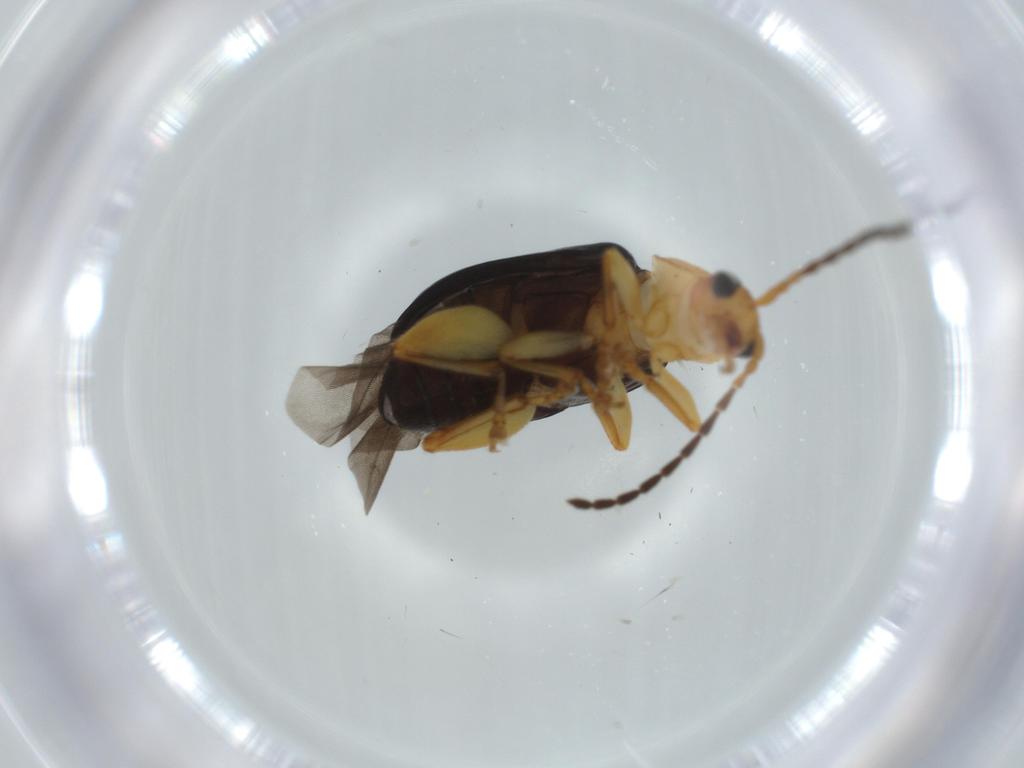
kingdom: Animalia
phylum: Arthropoda
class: Insecta
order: Coleoptera
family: Chrysomelidae
